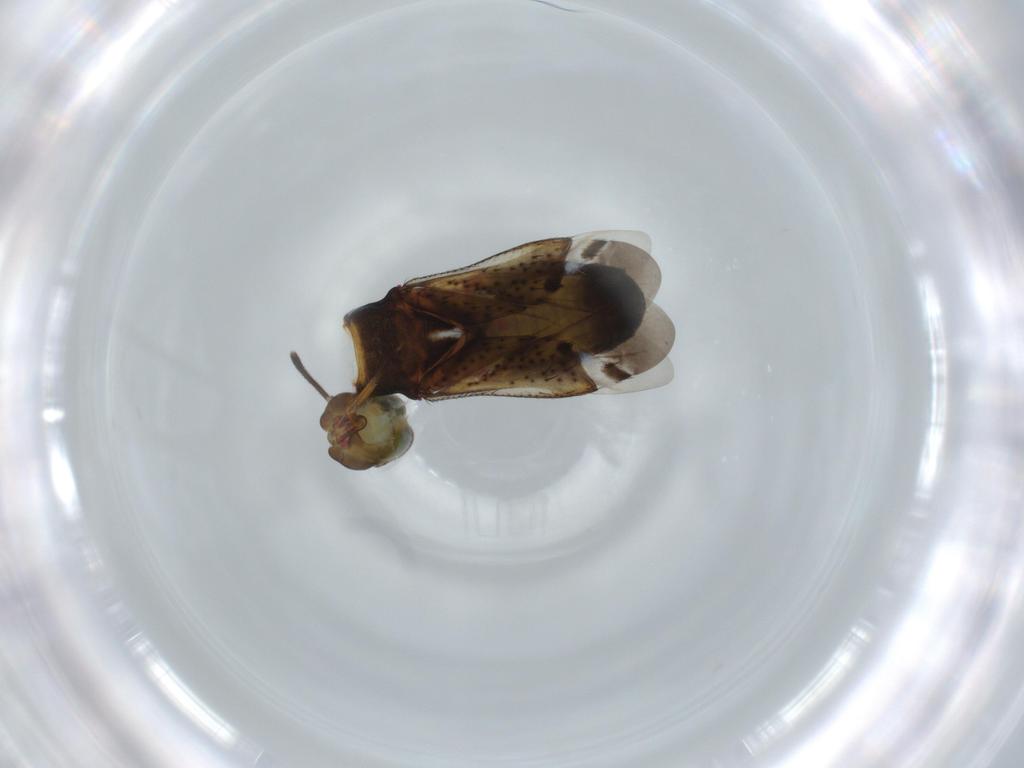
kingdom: Animalia
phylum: Arthropoda
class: Insecta
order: Hemiptera
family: Miridae
